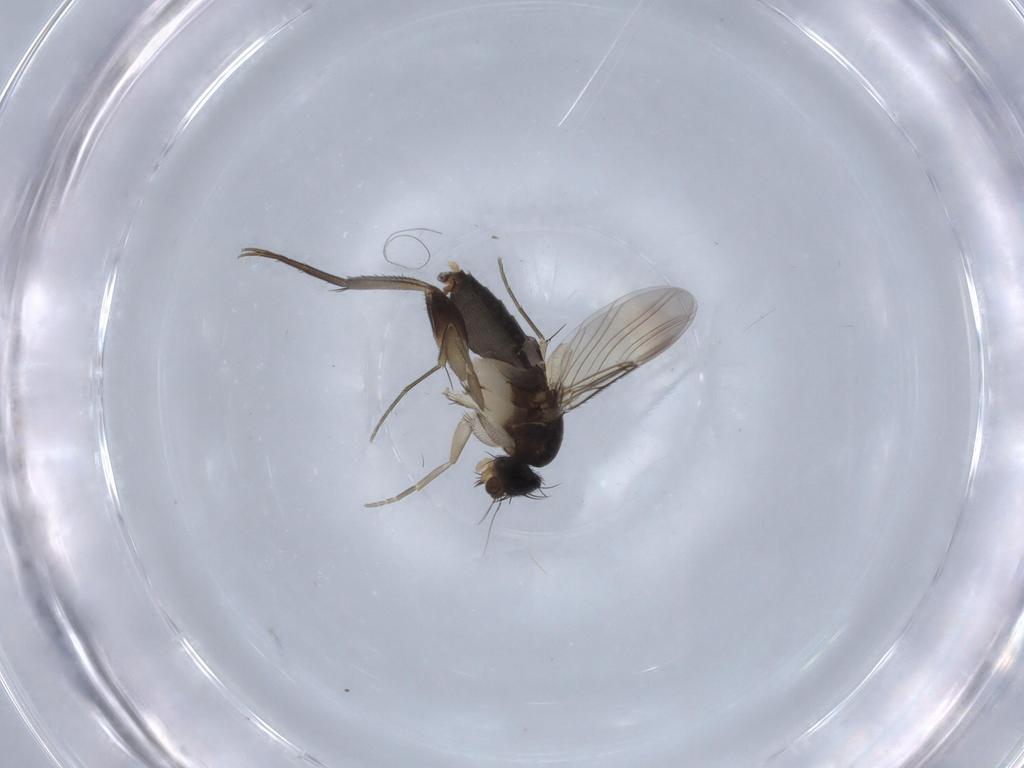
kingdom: Animalia
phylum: Arthropoda
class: Insecta
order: Diptera
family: Phoridae
